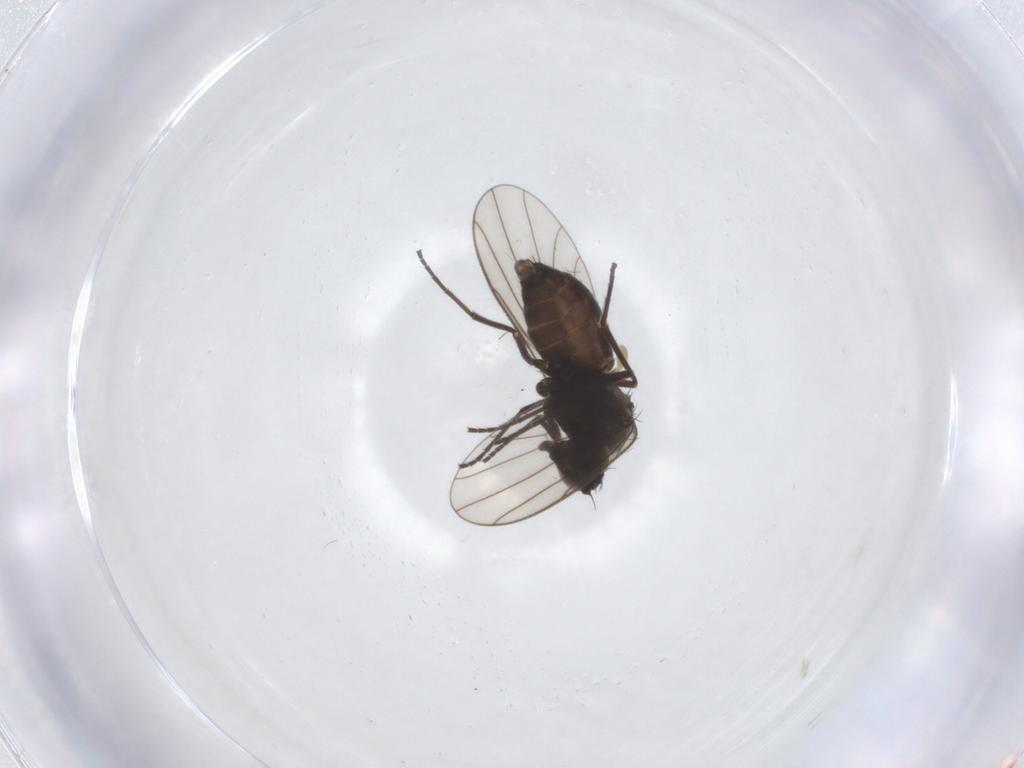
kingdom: Animalia
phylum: Arthropoda
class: Insecta
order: Diptera
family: Dolichopodidae
